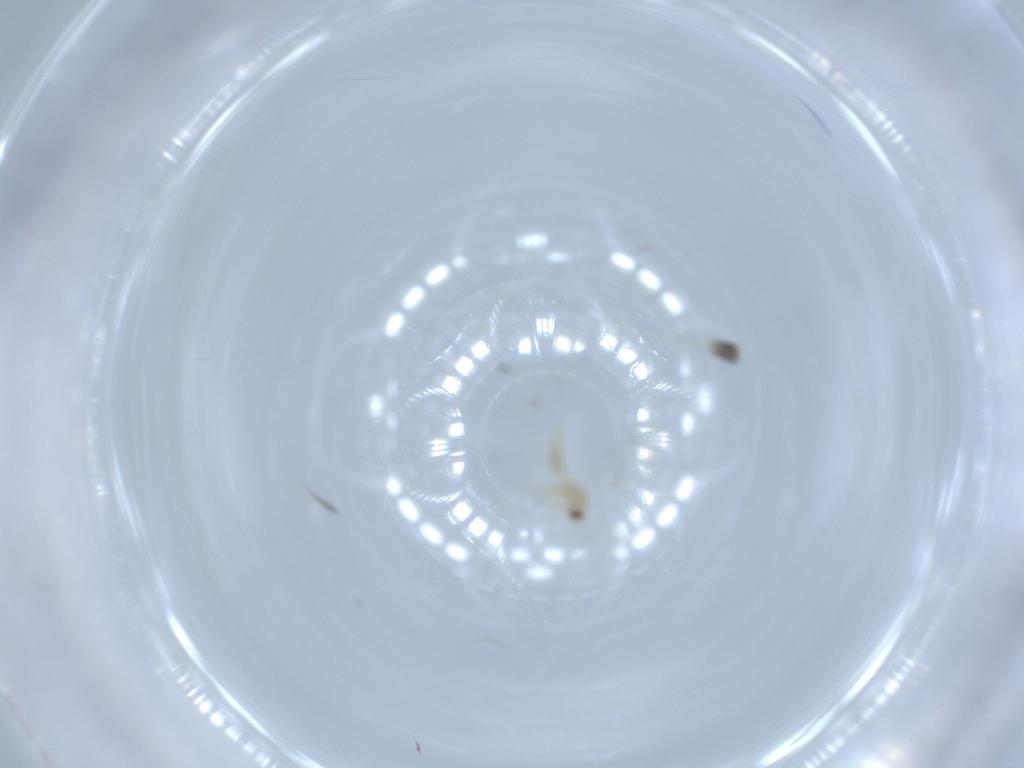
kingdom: Animalia
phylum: Arthropoda
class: Insecta
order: Hemiptera
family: Aleyrodidae
